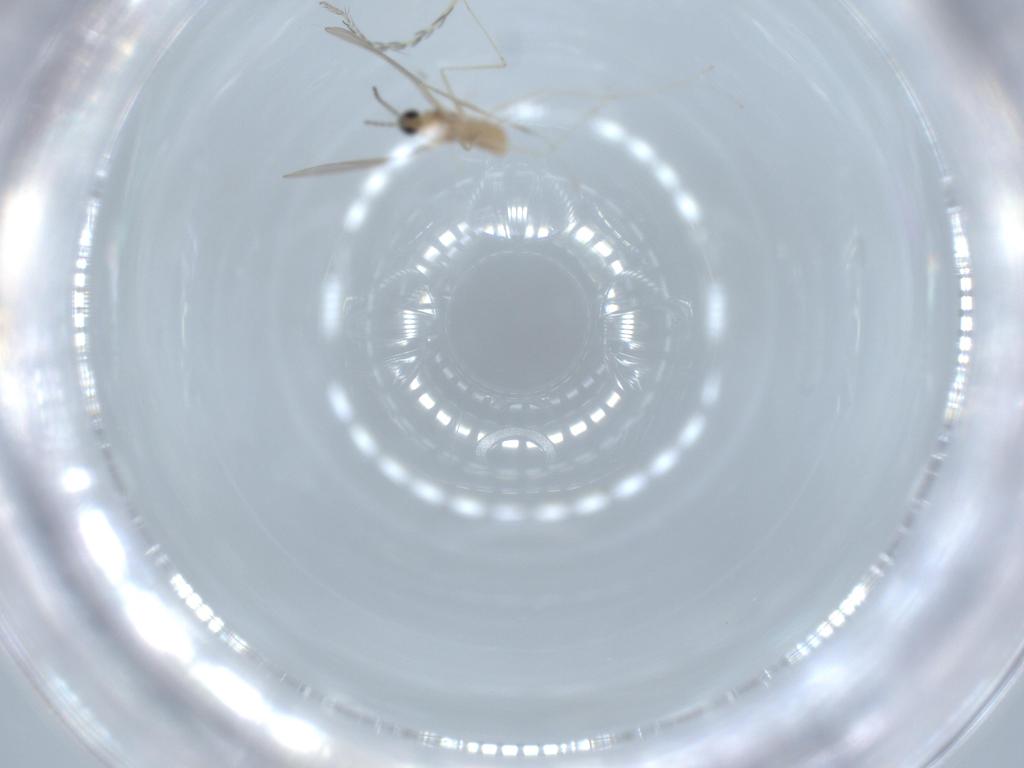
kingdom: Animalia
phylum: Arthropoda
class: Insecta
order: Diptera
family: Cecidomyiidae
